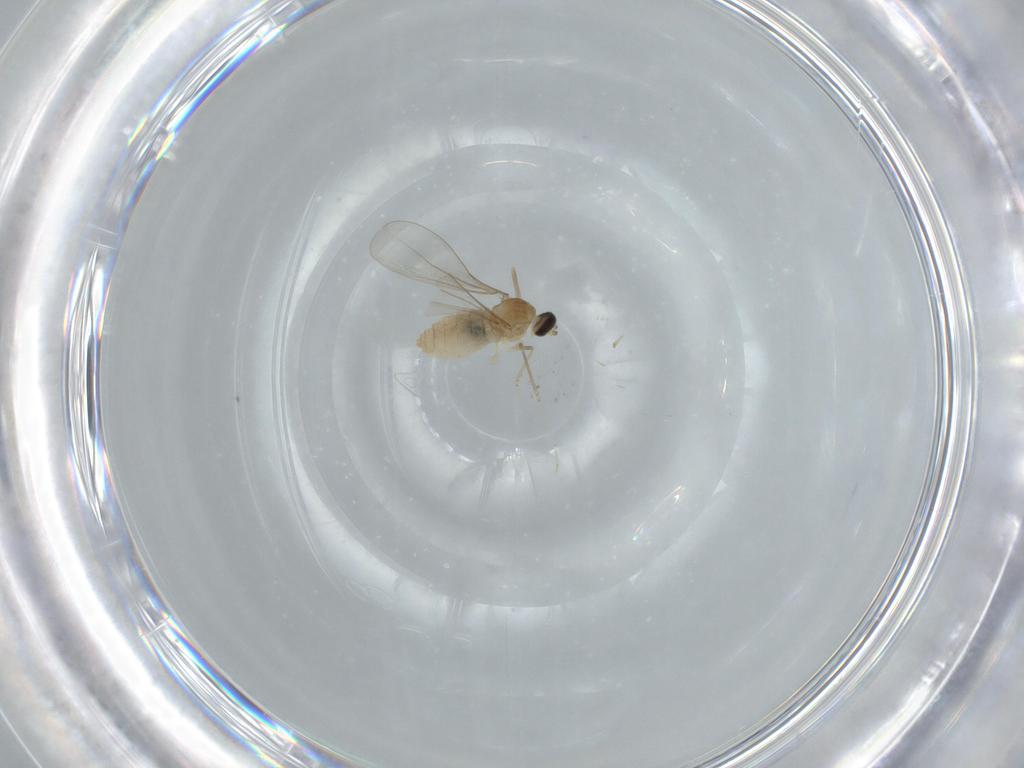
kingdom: Animalia
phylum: Arthropoda
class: Insecta
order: Diptera
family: Cecidomyiidae
